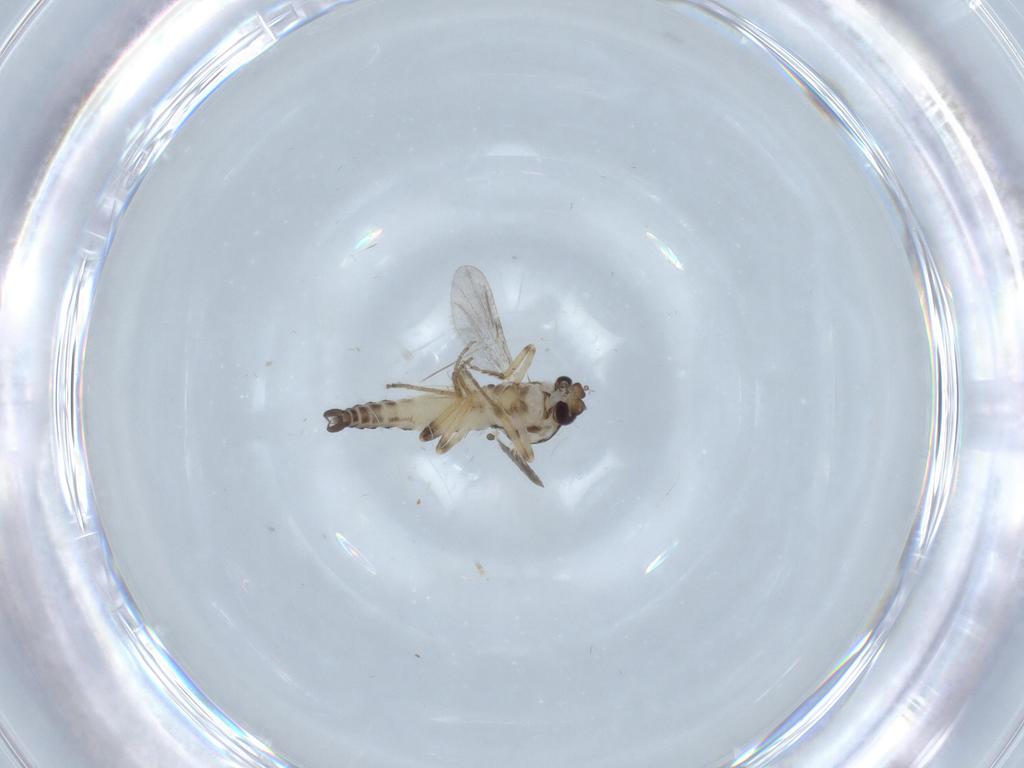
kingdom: Animalia
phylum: Arthropoda
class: Insecta
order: Diptera
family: Ceratopogonidae
